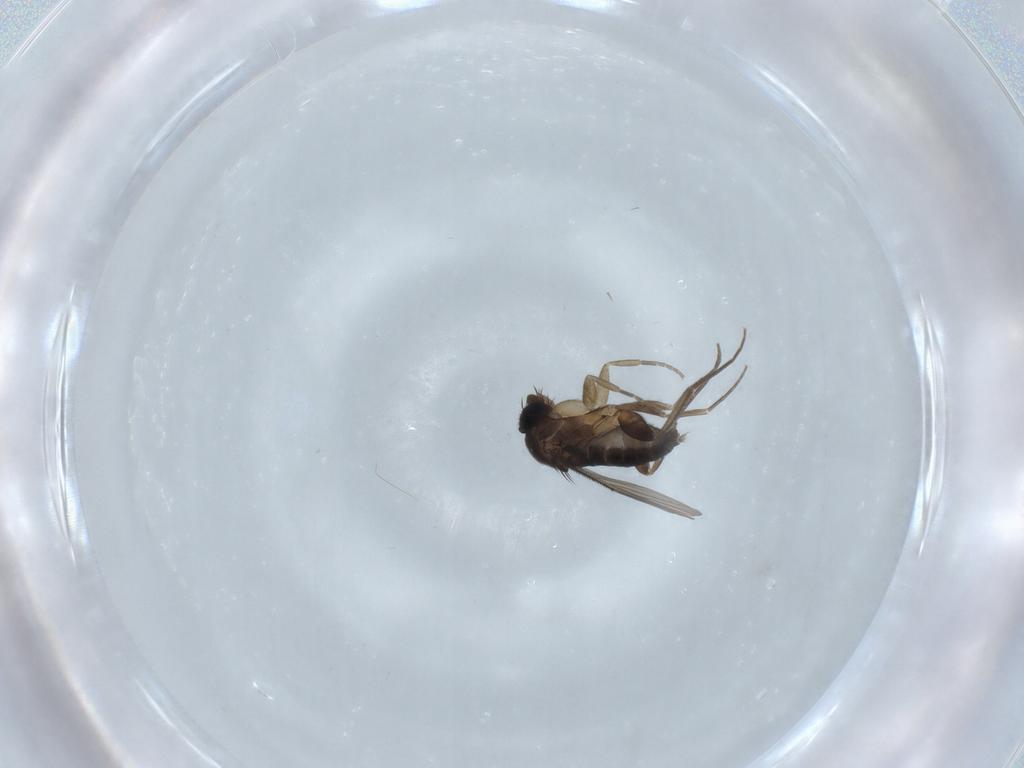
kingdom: Animalia
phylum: Arthropoda
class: Insecta
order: Diptera
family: Phoridae
